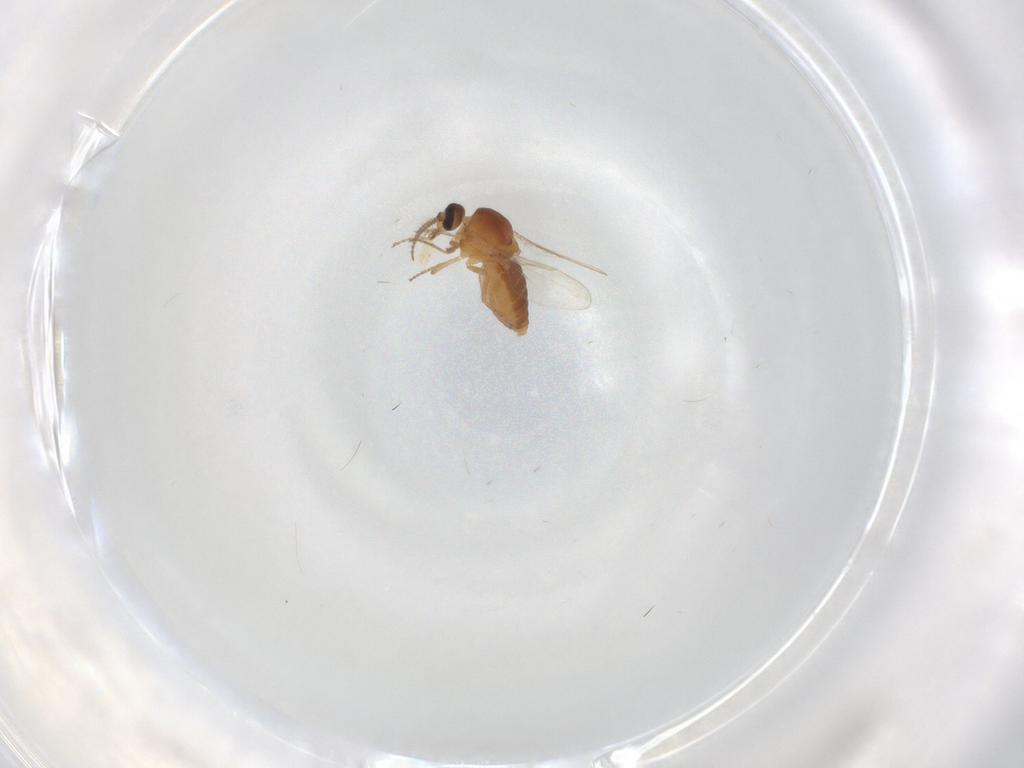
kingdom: Animalia
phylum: Arthropoda
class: Insecta
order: Diptera
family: Ceratopogonidae
